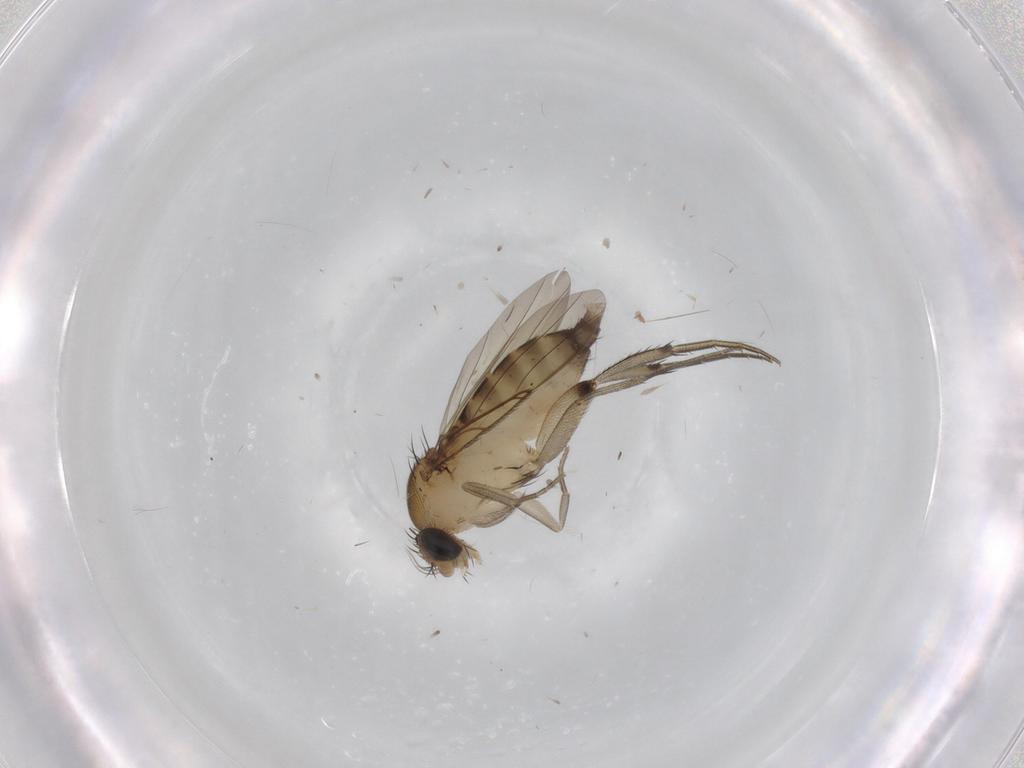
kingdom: Animalia
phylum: Arthropoda
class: Insecta
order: Diptera
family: Phoridae
